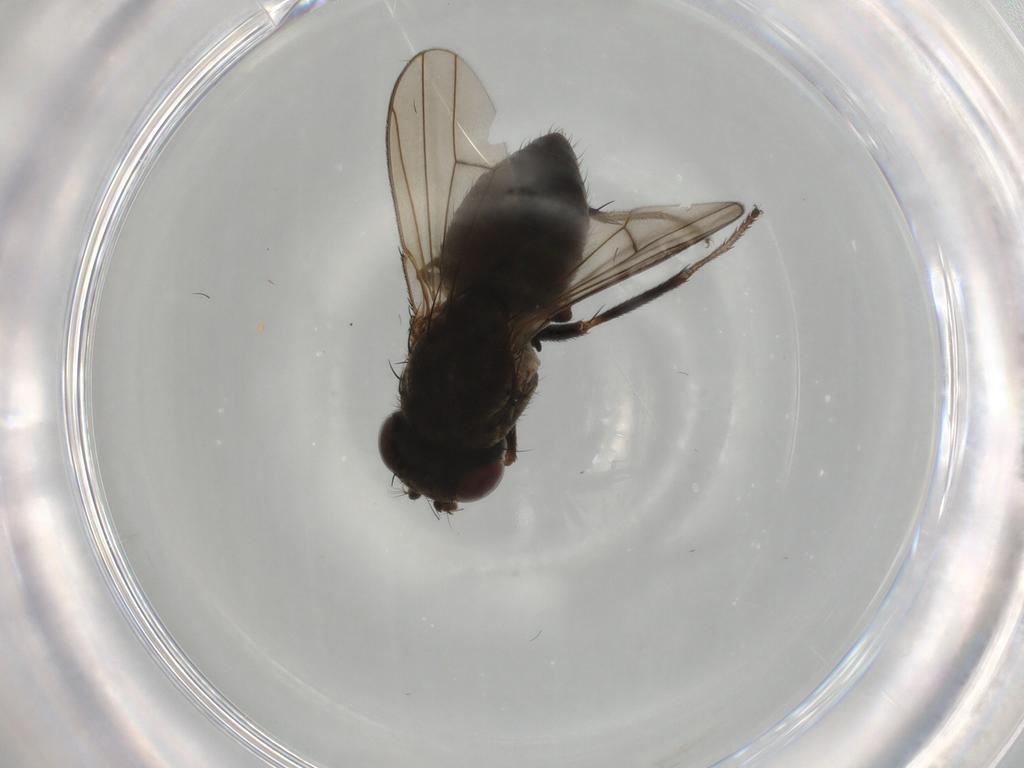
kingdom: Animalia
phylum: Arthropoda
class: Insecta
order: Diptera
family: Ephydridae
